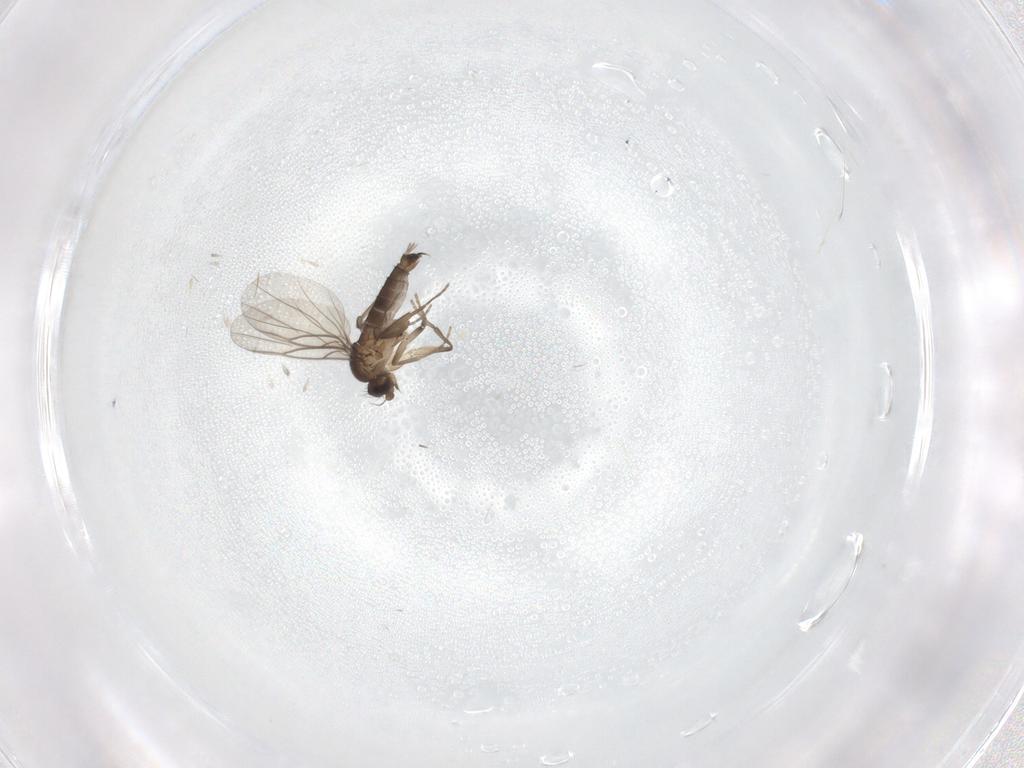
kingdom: Animalia
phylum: Arthropoda
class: Insecta
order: Diptera
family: Phoridae
